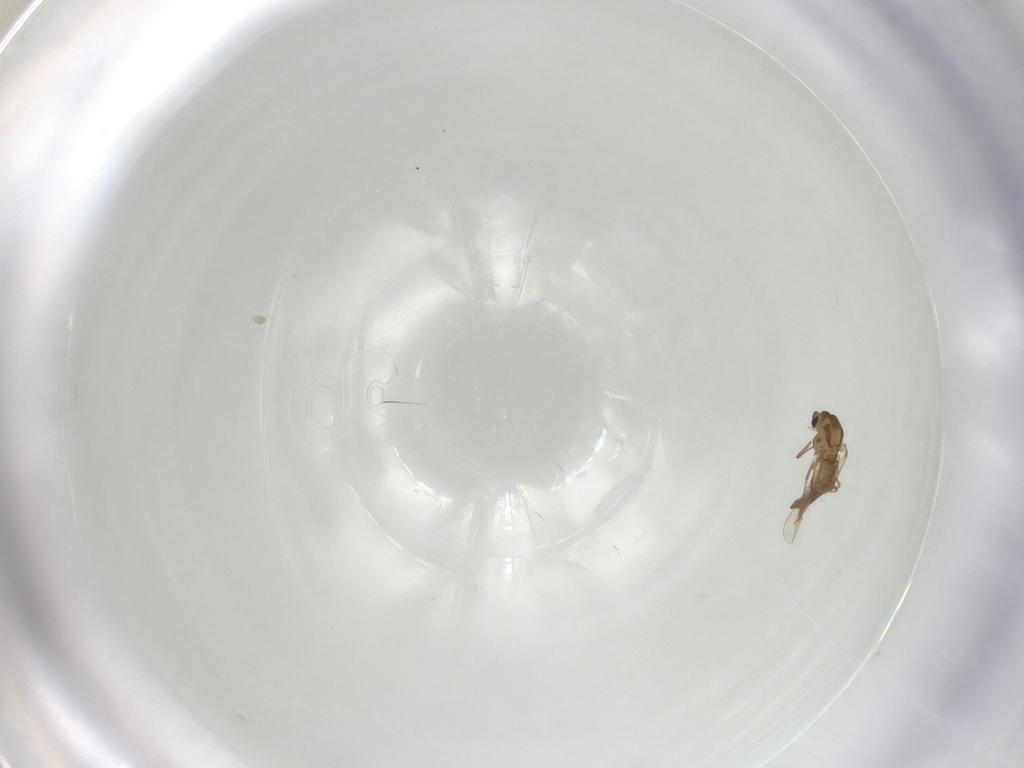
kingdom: Animalia
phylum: Arthropoda
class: Insecta
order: Diptera
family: Chironomidae
